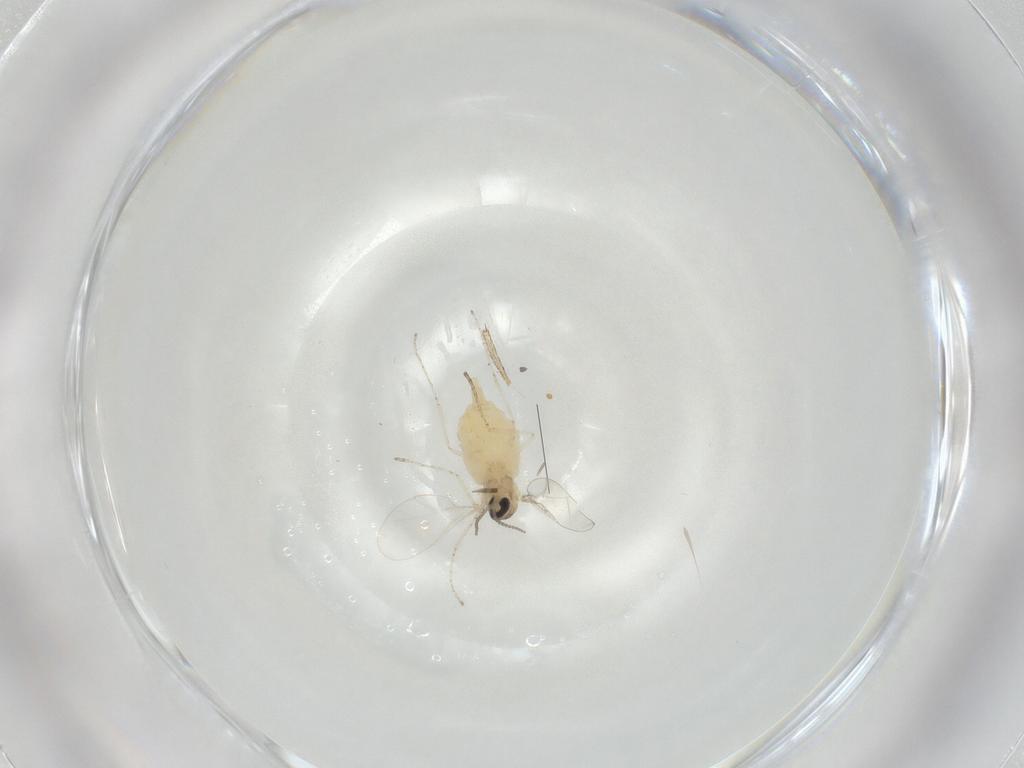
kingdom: Animalia
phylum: Arthropoda
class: Insecta
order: Diptera
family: Cecidomyiidae
